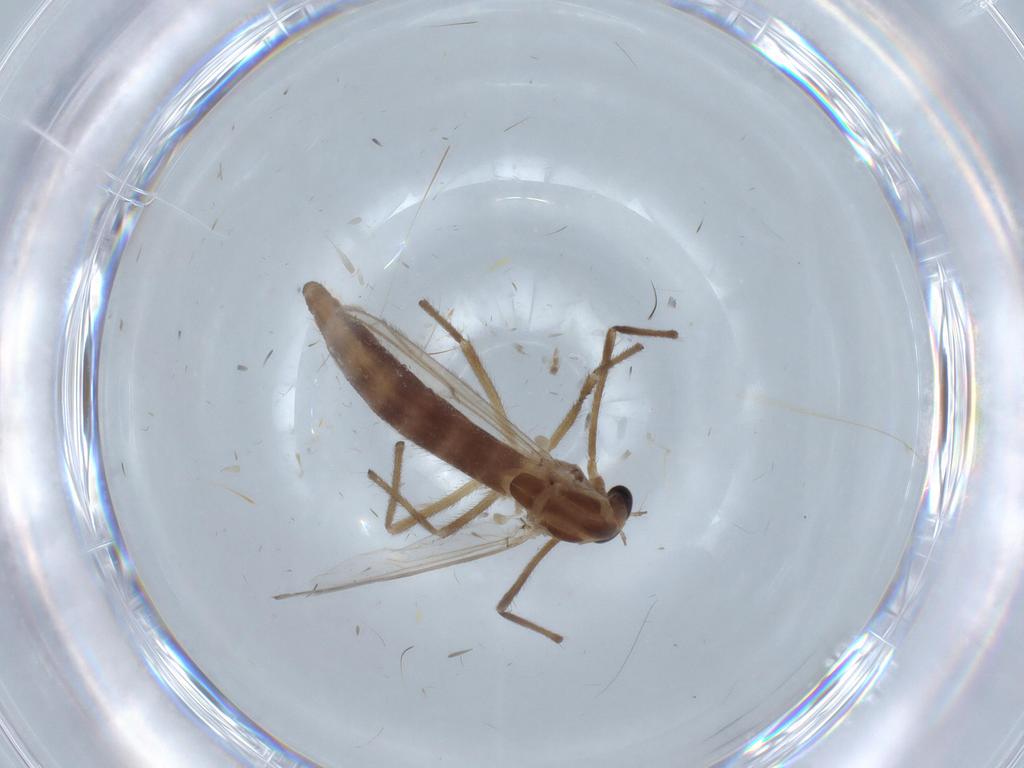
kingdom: Animalia
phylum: Arthropoda
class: Insecta
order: Diptera
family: Chironomidae
